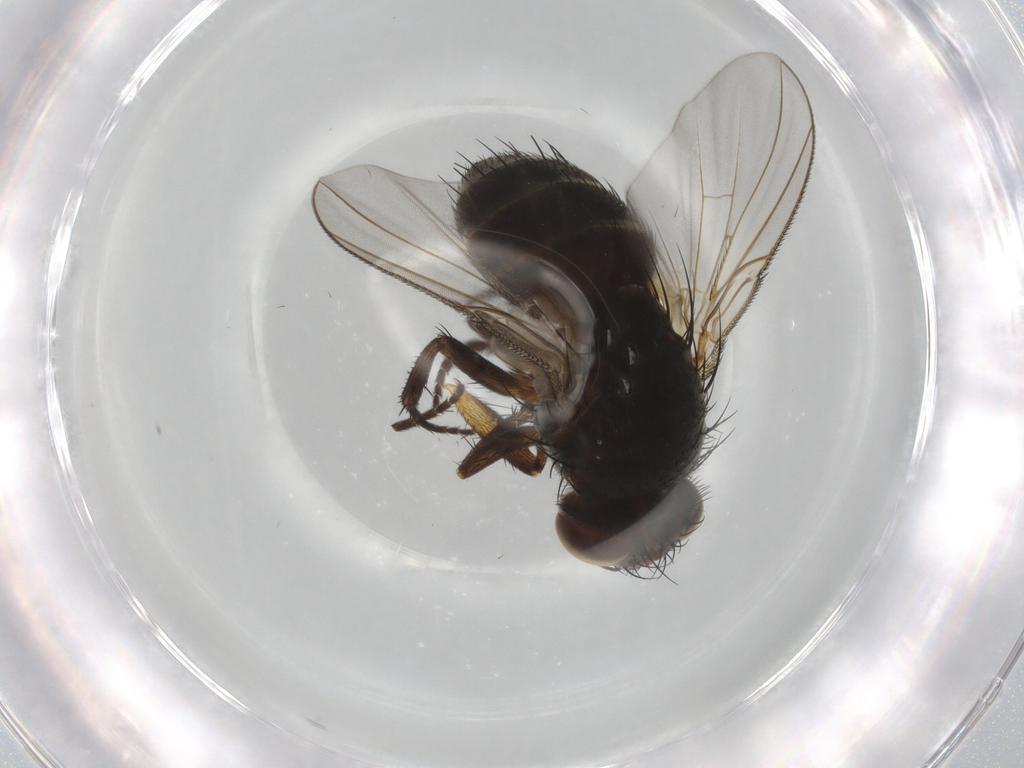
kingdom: Animalia
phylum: Arthropoda
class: Insecta
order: Diptera
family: Tachinidae
